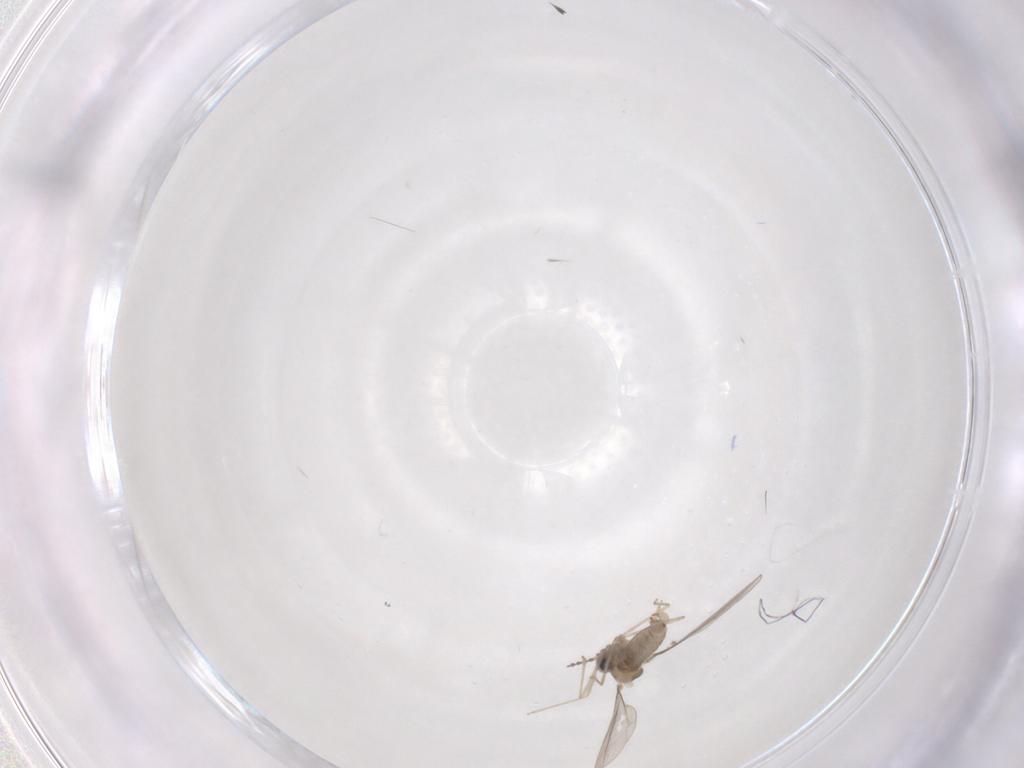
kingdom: Animalia
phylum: Arthropoda
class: Insecta
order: Diptera
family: Cecidomyiidae
